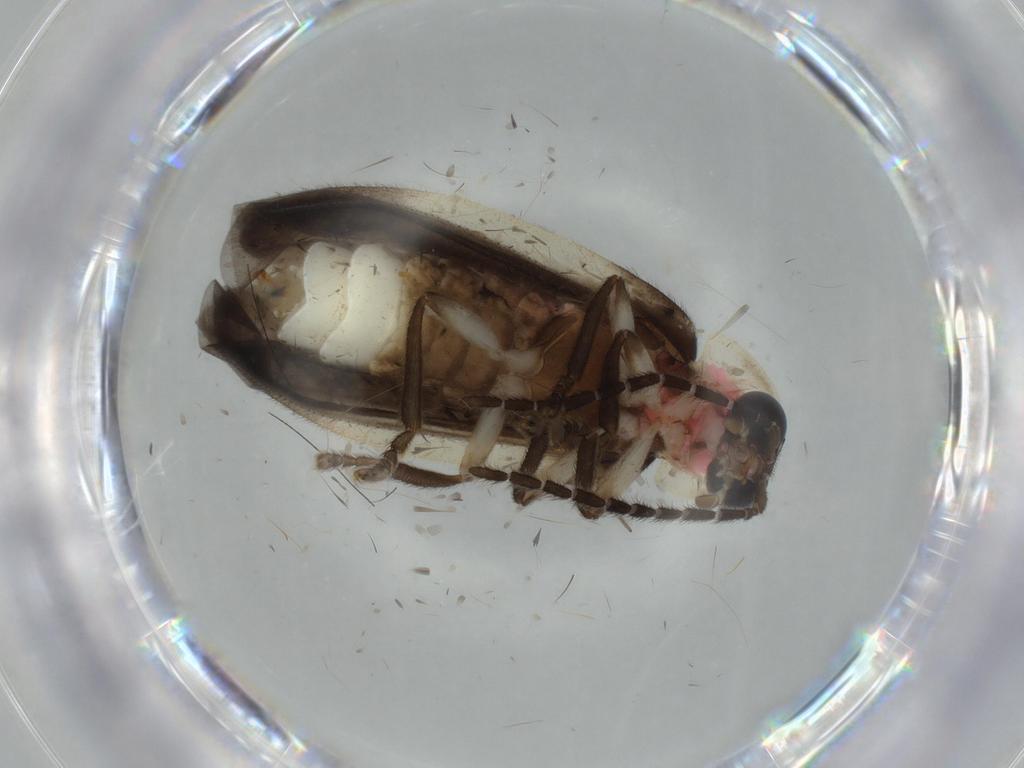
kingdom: Animalia
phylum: Arthropoda
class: Insecta
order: Coleoptera
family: Lampyridae
